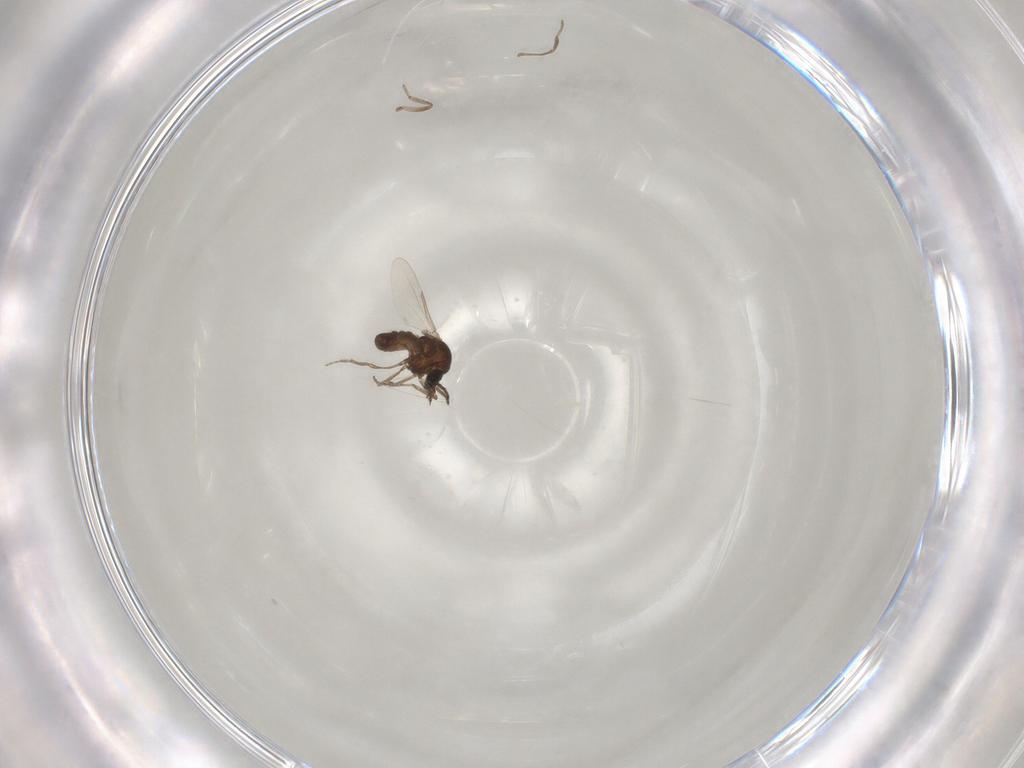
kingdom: Animalia
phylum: Arthropoda
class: Insecta
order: Diptera
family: Ceratopogonidae
